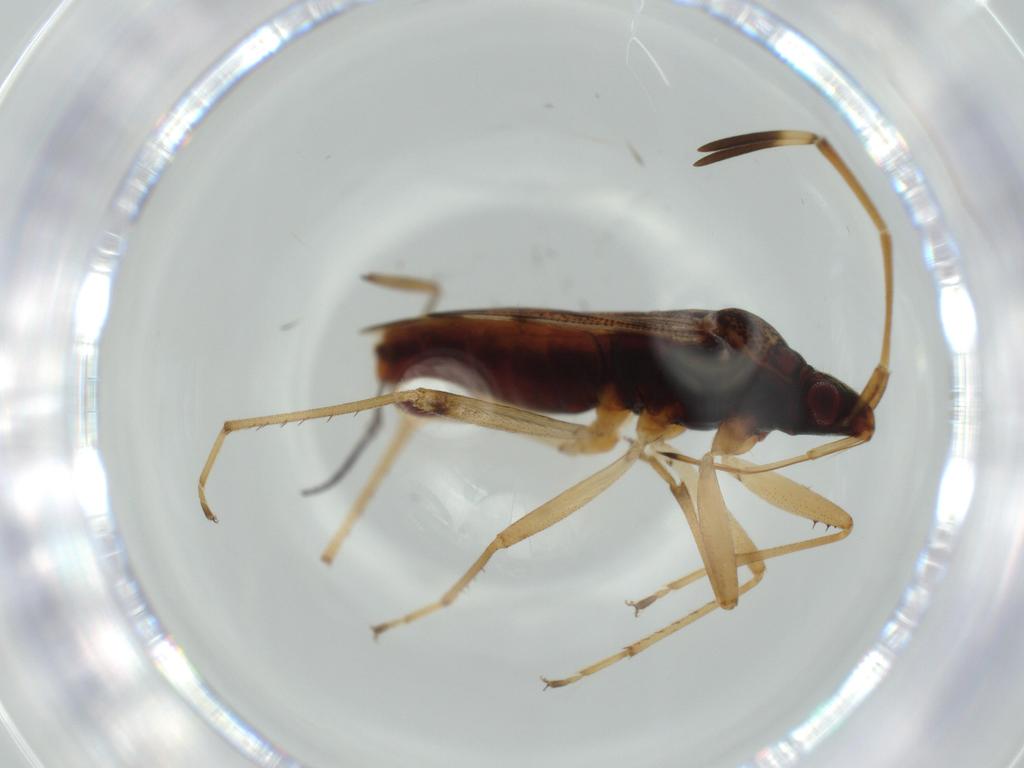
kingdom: Animalia
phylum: Arthropoda
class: Insecta
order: Hemiptera
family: Rhyparochromidae
